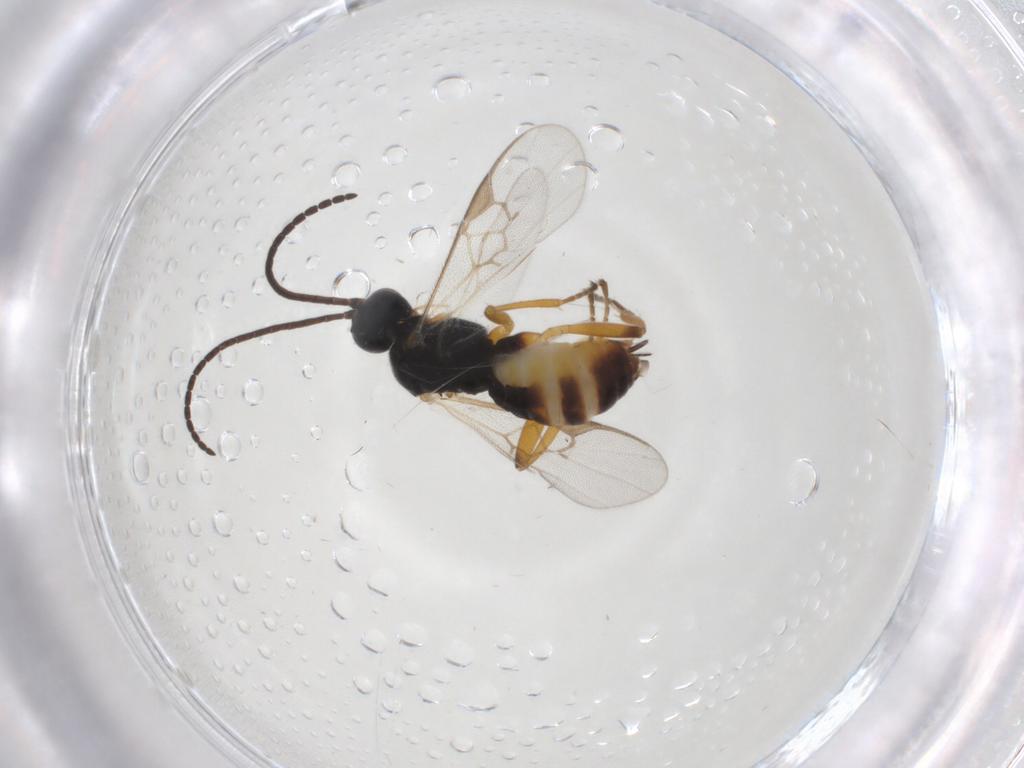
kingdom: Animalia
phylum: Arthropoda
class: Insecta
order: Hymenoptera
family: Braconidae
